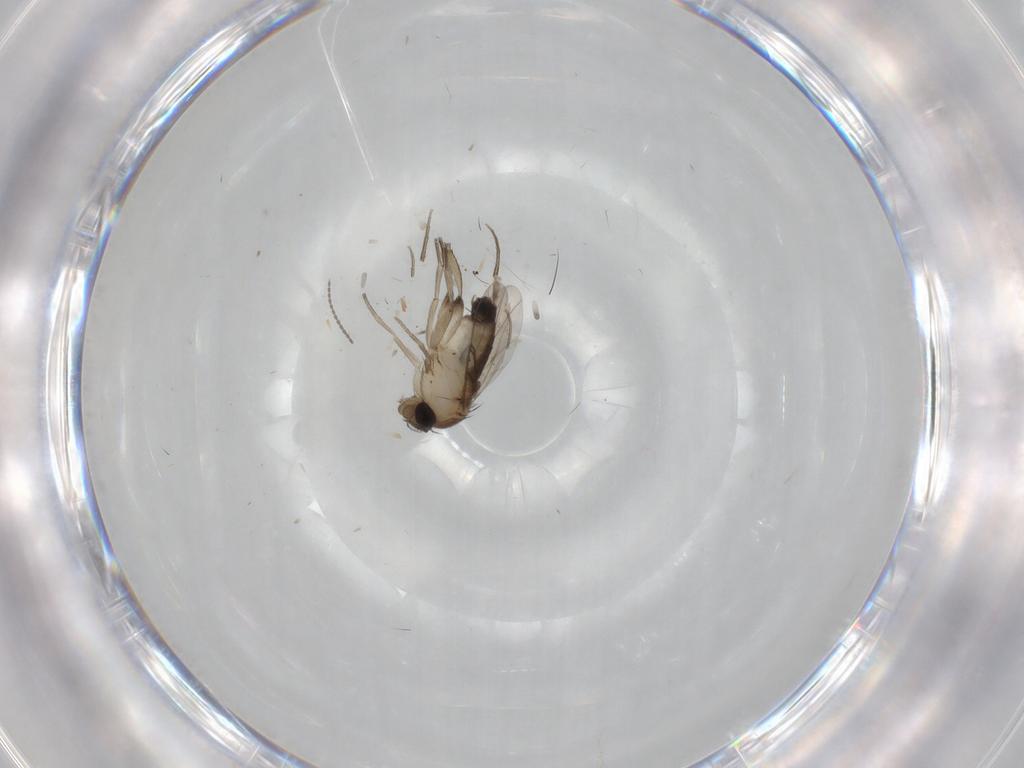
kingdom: Animalia
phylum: Arthropoda
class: Insecta
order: Diptera
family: Phoridae
